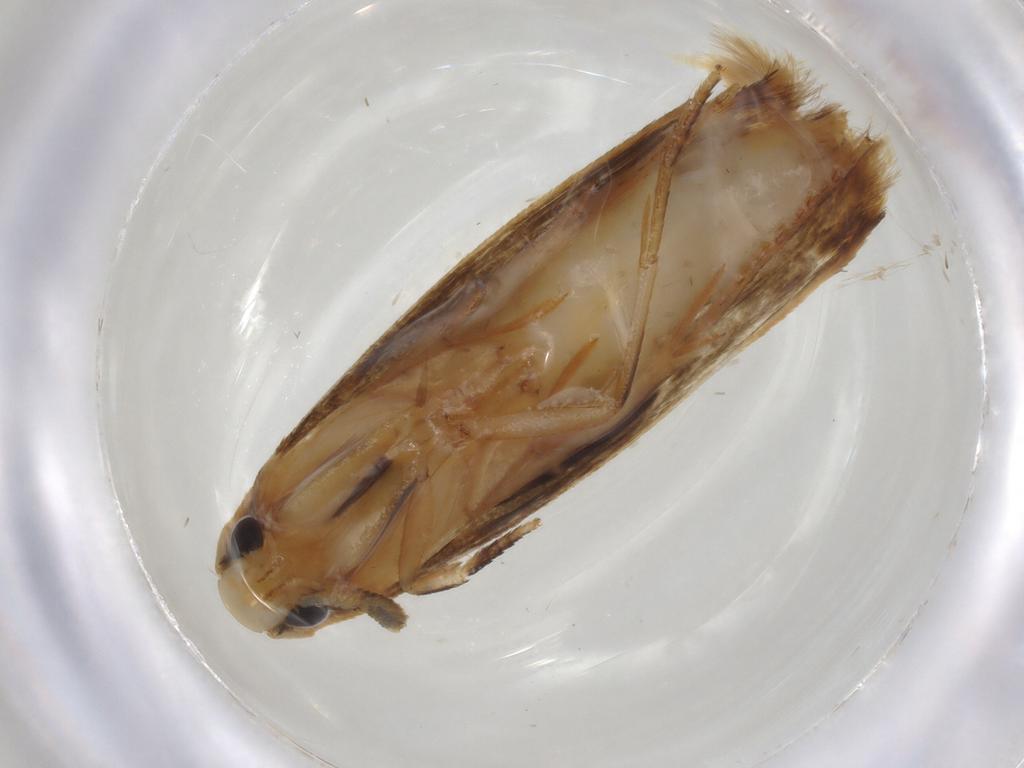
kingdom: Animalia
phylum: Arthropoda
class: Insecta
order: Lepidoptera
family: Tineidae
